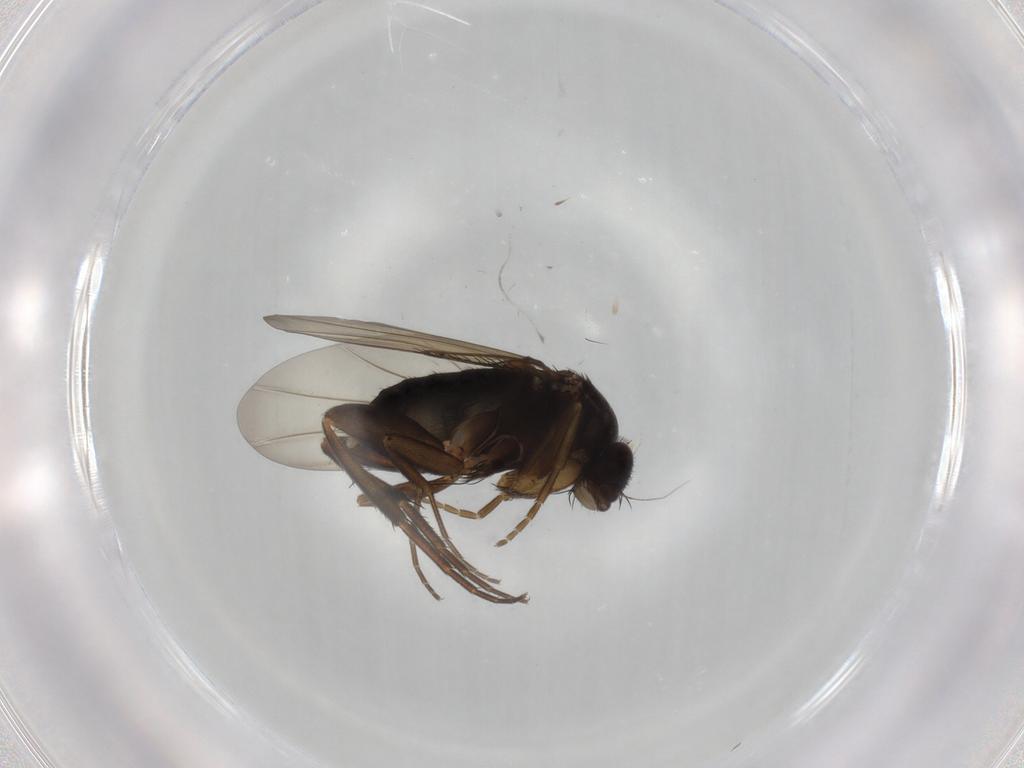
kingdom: Animalia
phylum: Arthropoda
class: Insecta
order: Diptera
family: Phoridae
